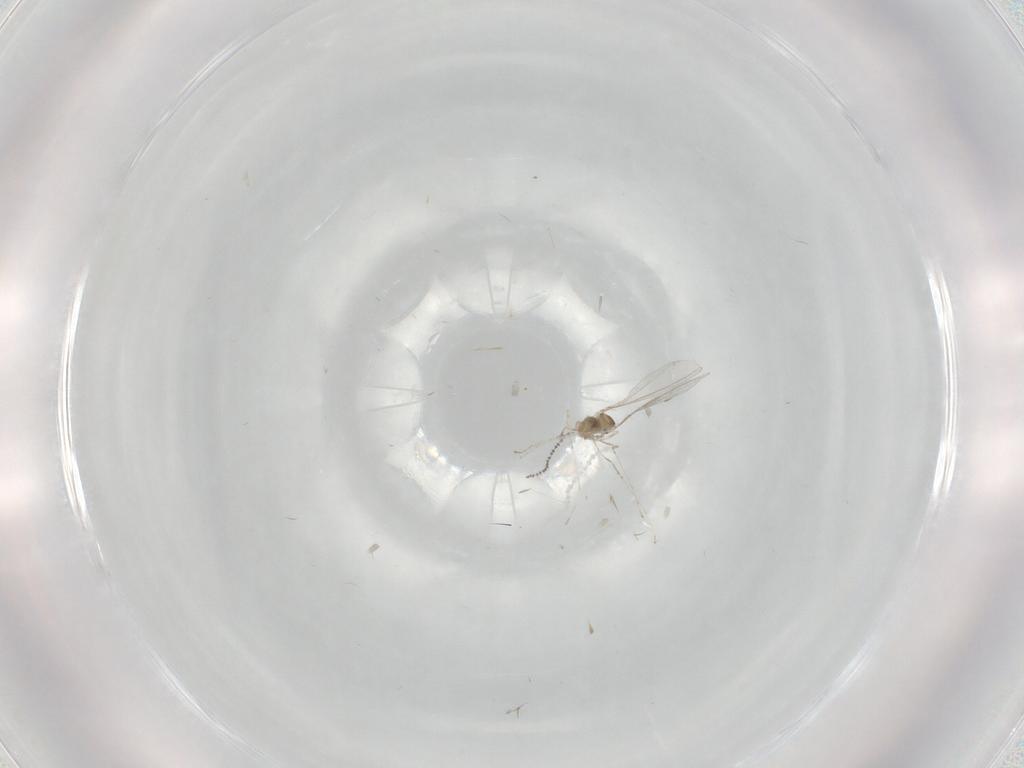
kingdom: Animalia
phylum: Arthropoda
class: Insecta
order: Diptera
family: Cecidomyiidae
